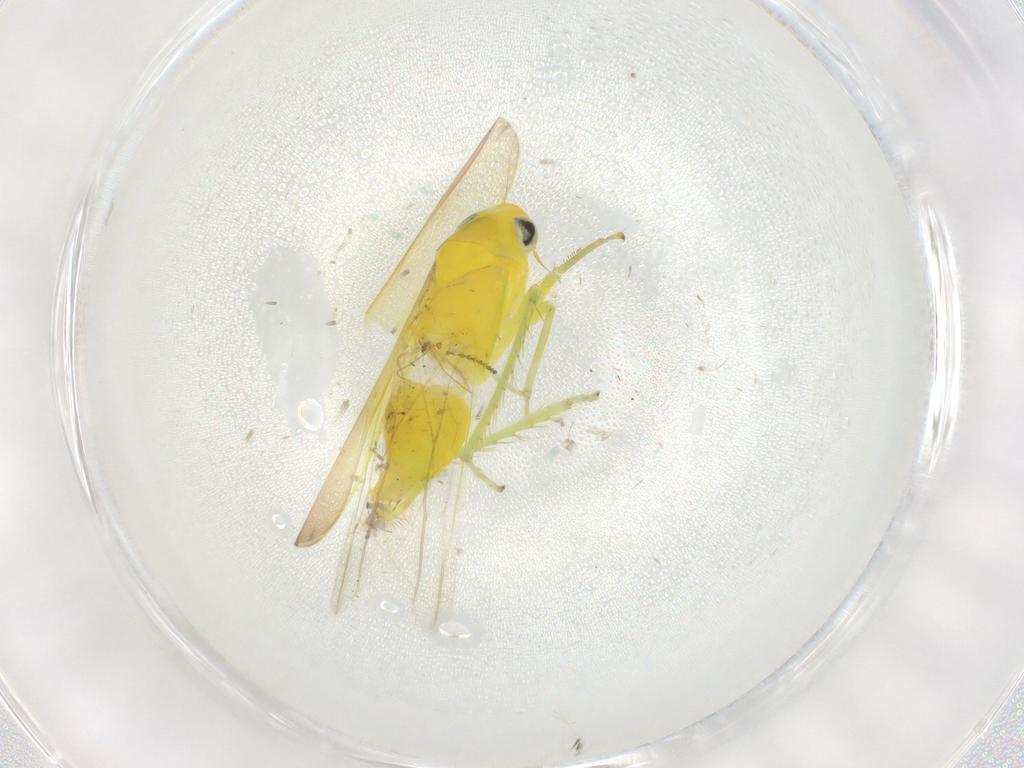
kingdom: Animalia
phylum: Arthropoda
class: Insecta
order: Hemiptera
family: Cicadellidae
